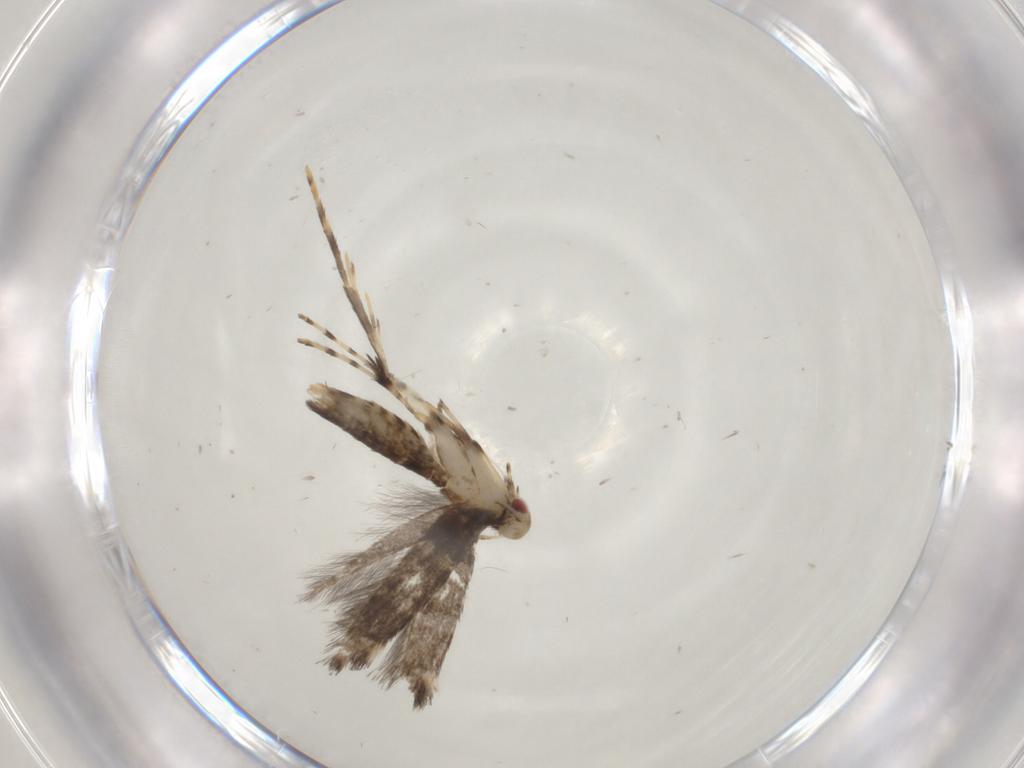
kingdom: Animalia
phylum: Arthropoda
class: Insecta
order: Lepidoptera
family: Gracillariidae
